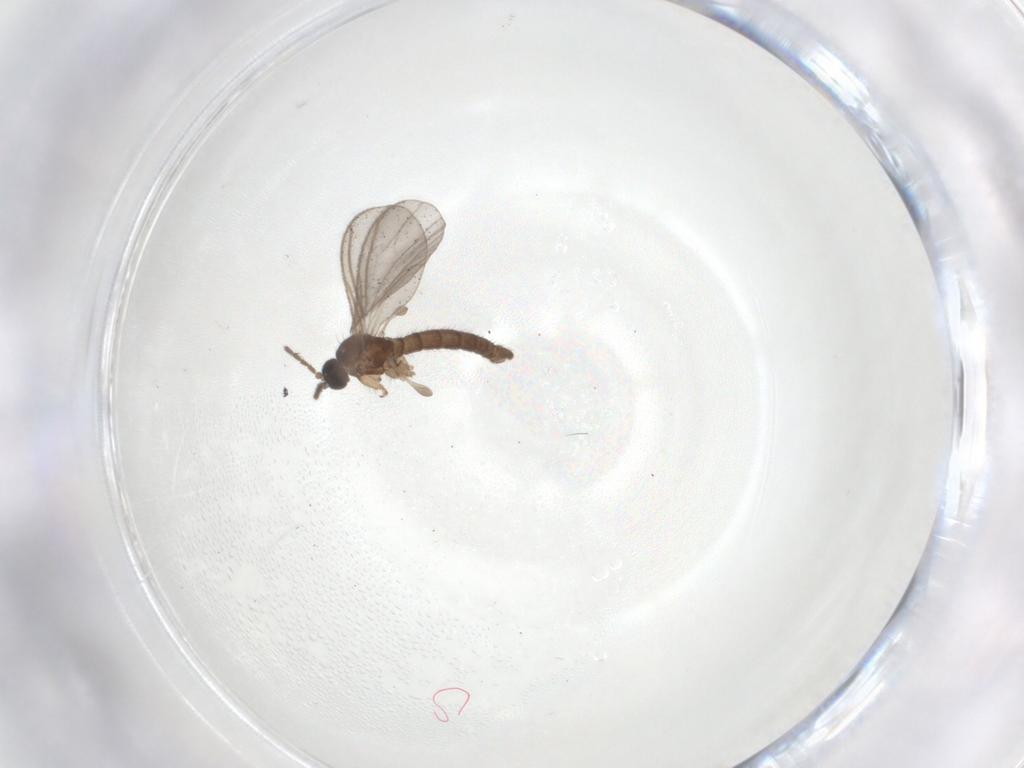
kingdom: Animalia
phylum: Arthropoda
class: Insecta
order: Diptera
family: Sciaridae
